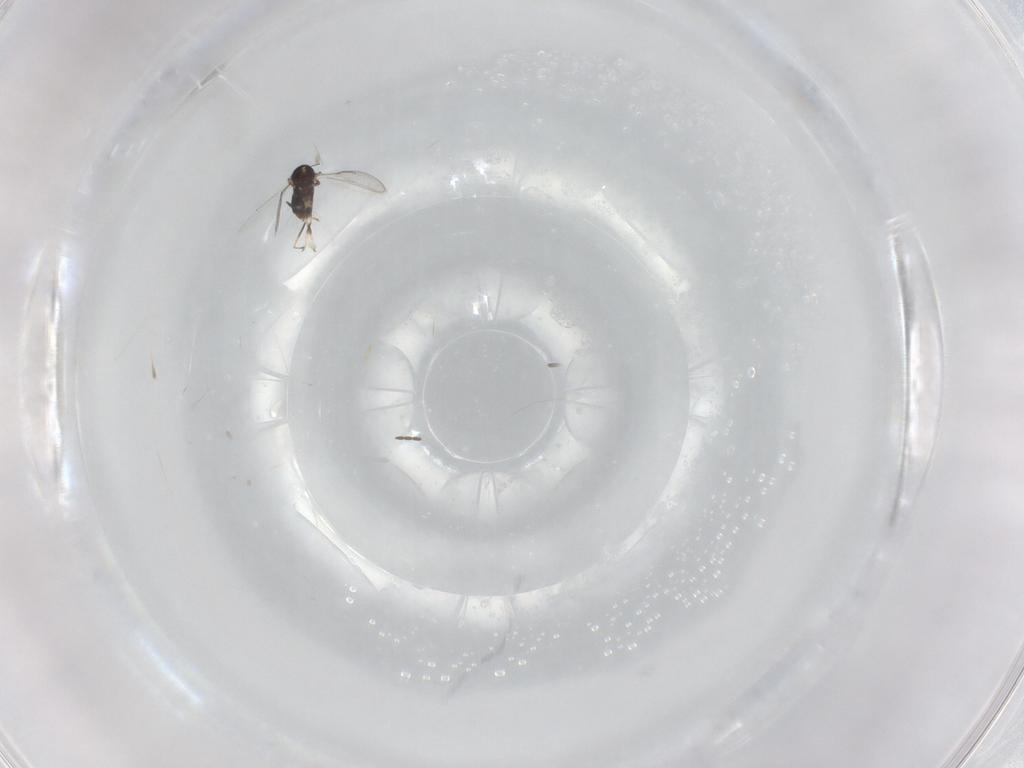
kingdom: Animalia
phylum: Arthropoda
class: Insecta
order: Hymenoptera
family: Aphelinidae
